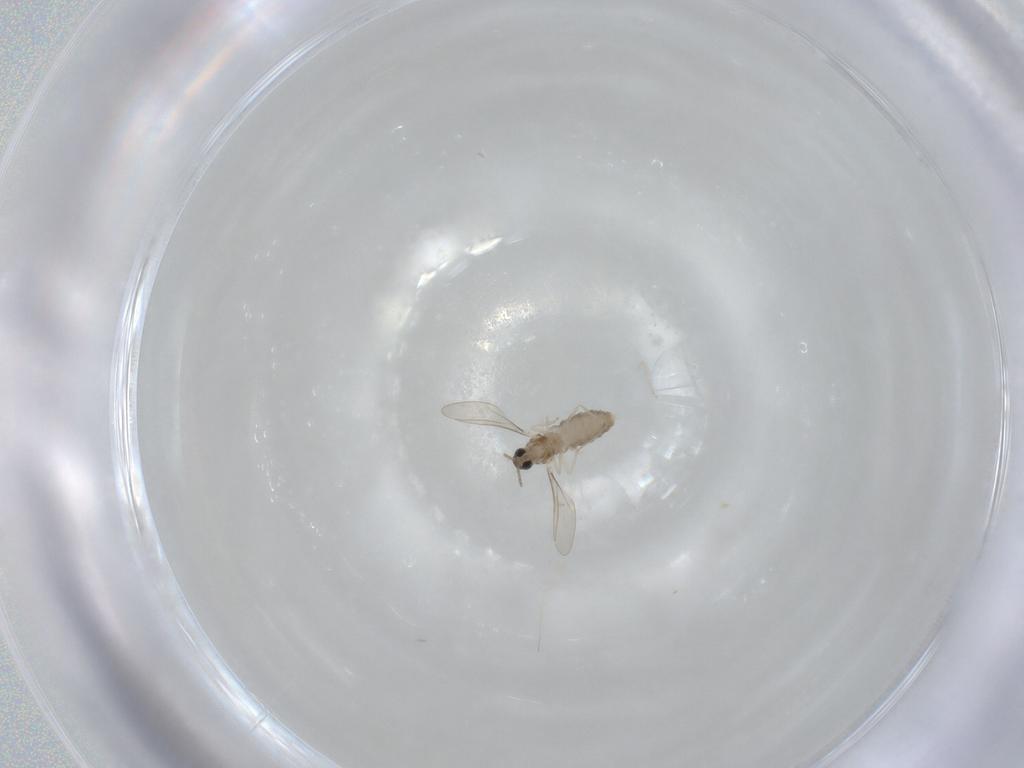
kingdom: Animalia
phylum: Arthropoda
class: Insecta
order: Diptera
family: Cecidomyiidae
